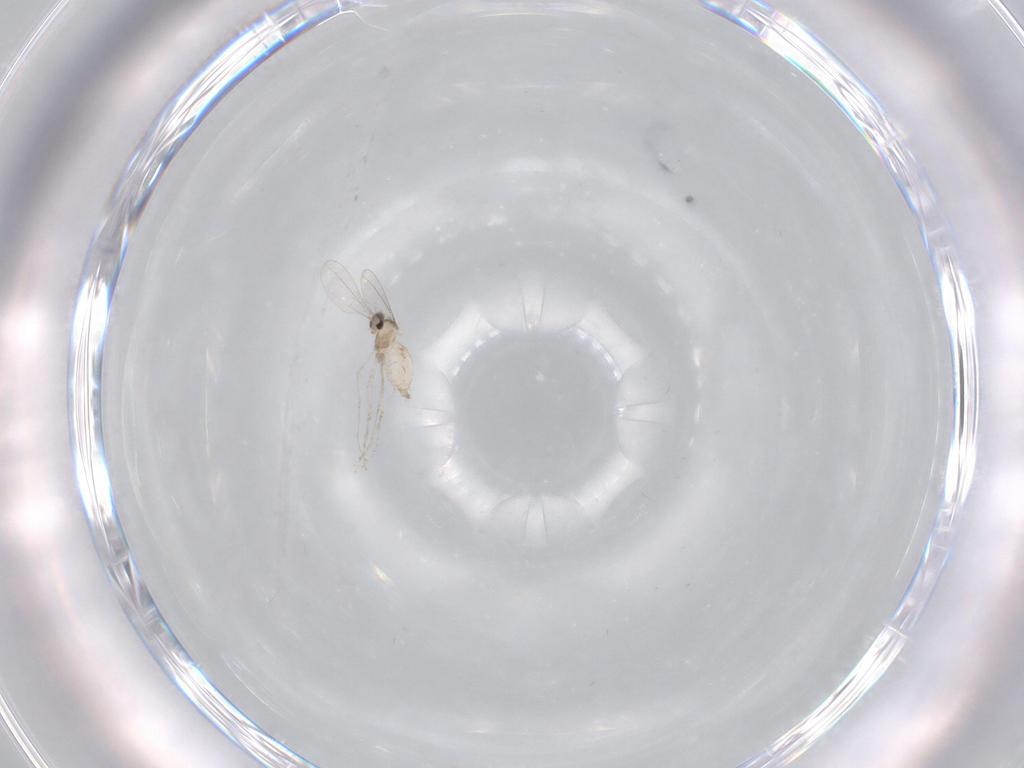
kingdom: Animalia
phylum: Arthropoda
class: Insecta
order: Diptera
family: Cecidomyiidae
